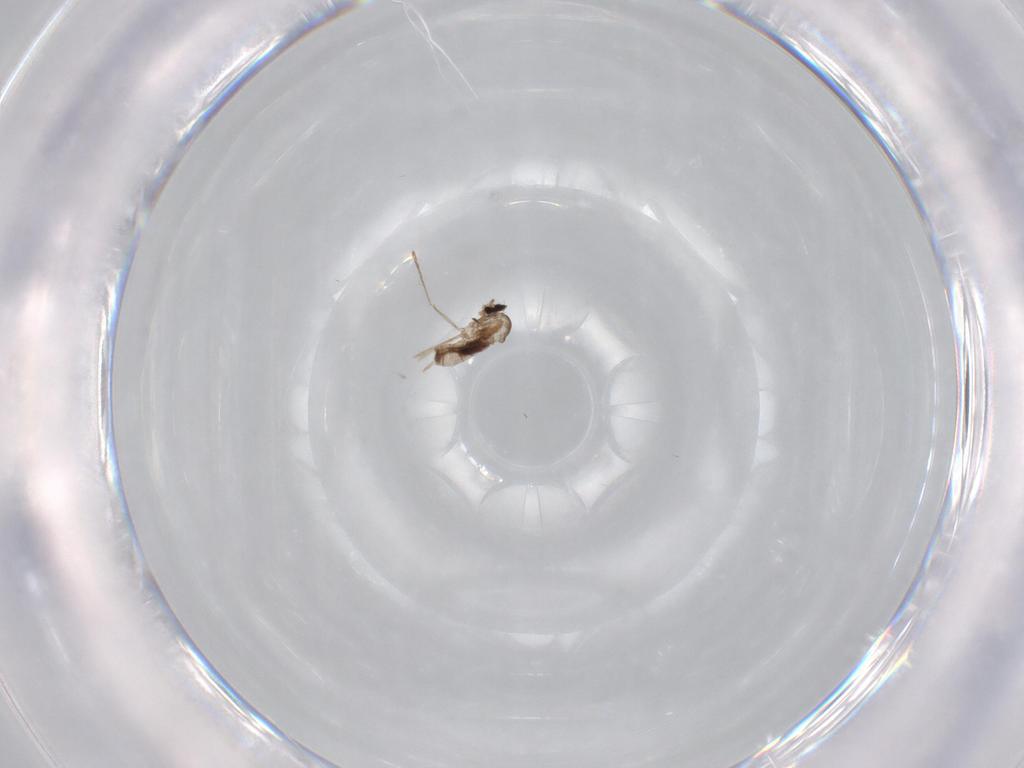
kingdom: Animalia
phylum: Arthropoda
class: Insecta
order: Diptera
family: Cecidomyiidae
